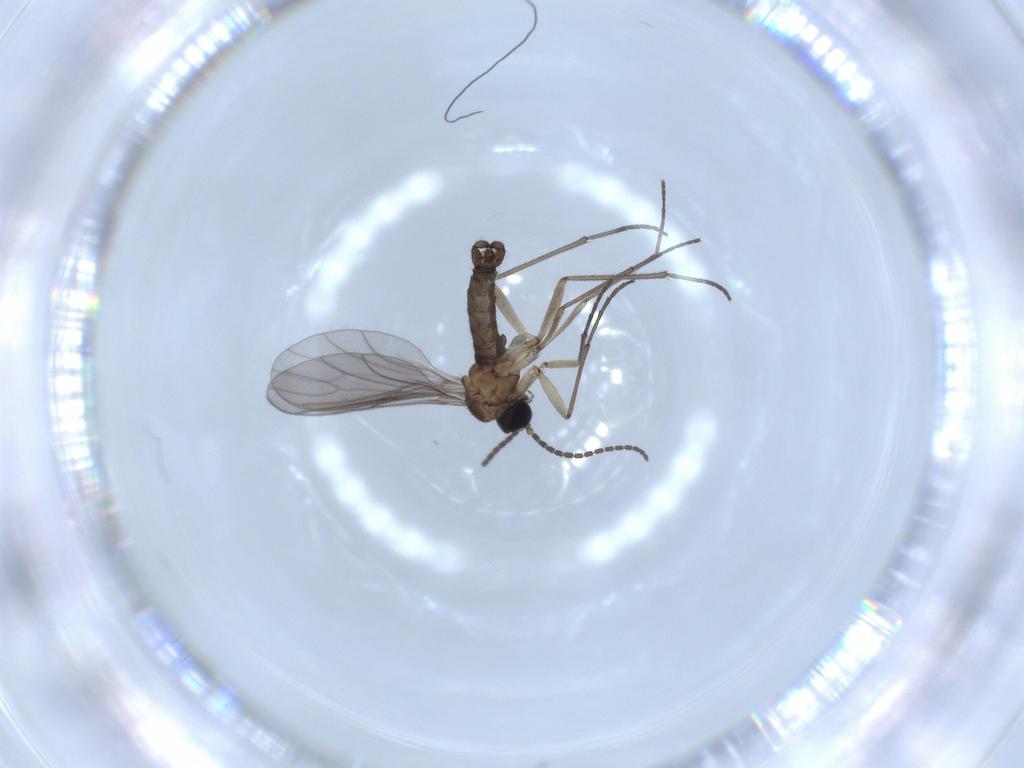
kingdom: Animalia
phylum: Arthropoda
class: Insecta
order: Diptera
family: Sciaridae
